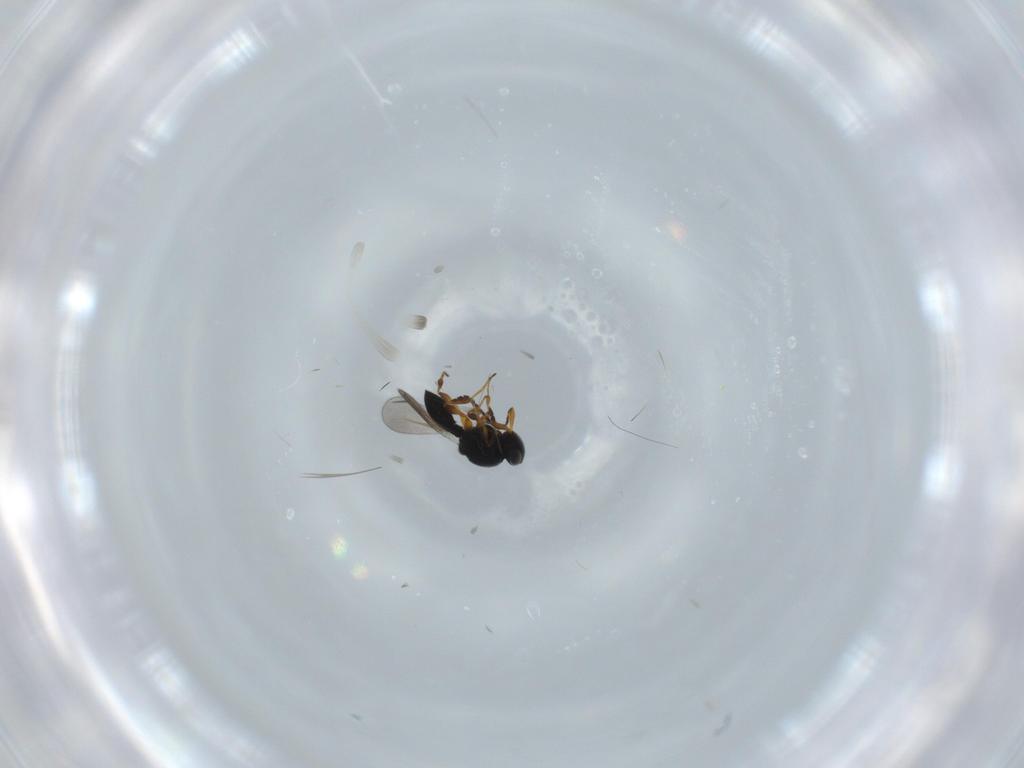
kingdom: Animalia
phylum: Arthropoda
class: Insecta
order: Hymenoptera
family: Platygastridae
